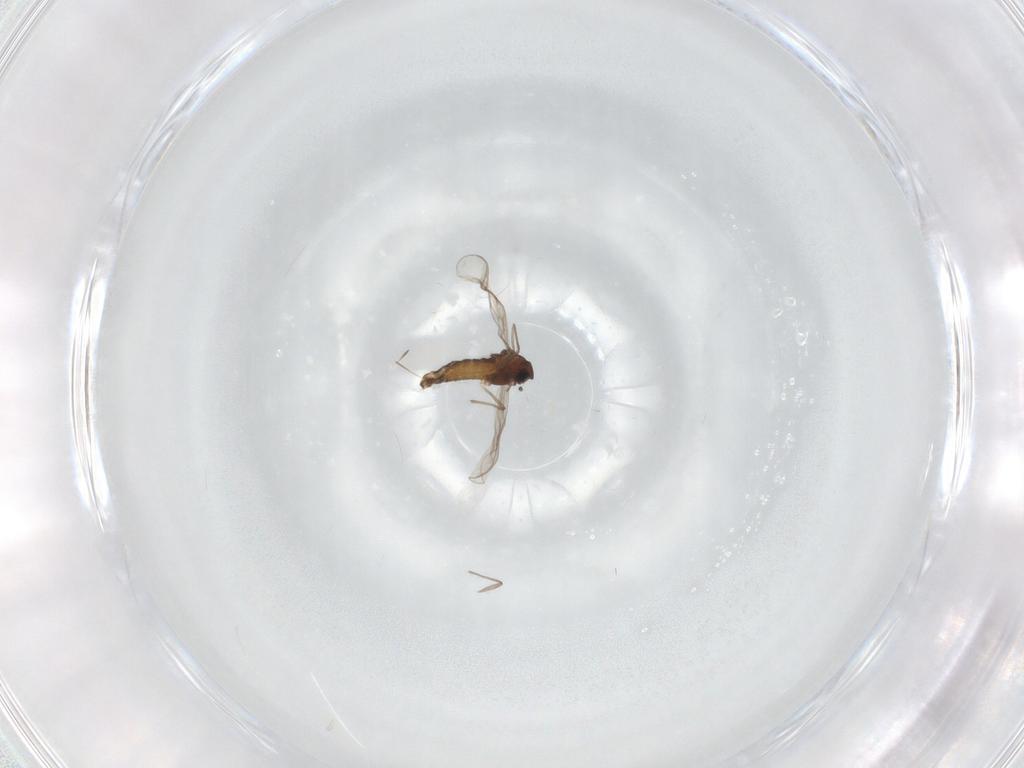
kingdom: Animalia
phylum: Arthropoda
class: Insecta
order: Diptera
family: Chironomidae
